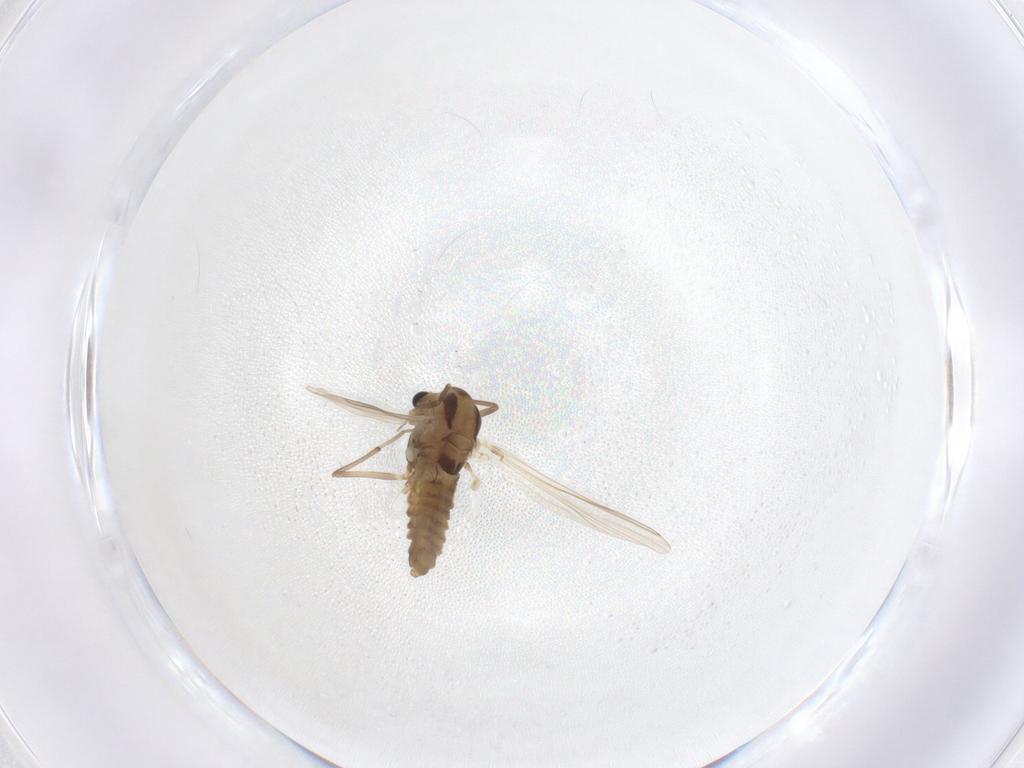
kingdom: Animalia
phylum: Arthropoda
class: Insecta
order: Diptera
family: Chironomidae
